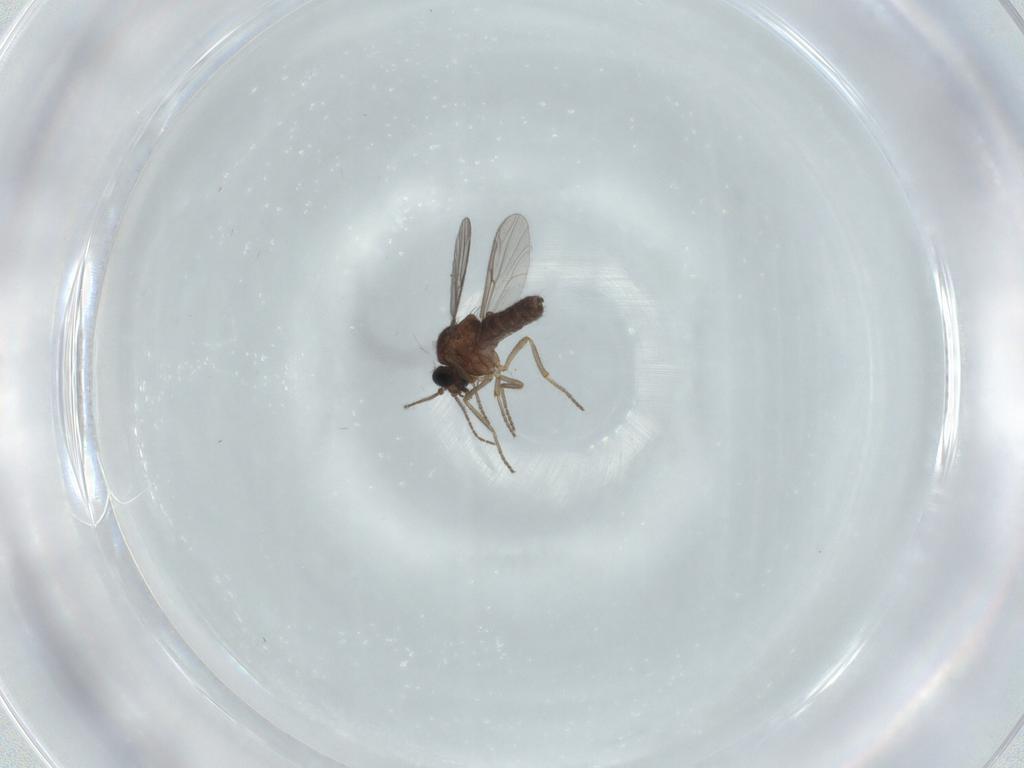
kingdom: Animalia
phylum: Arthropoda
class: Insecta
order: Diptera
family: Ceratopogonidae
